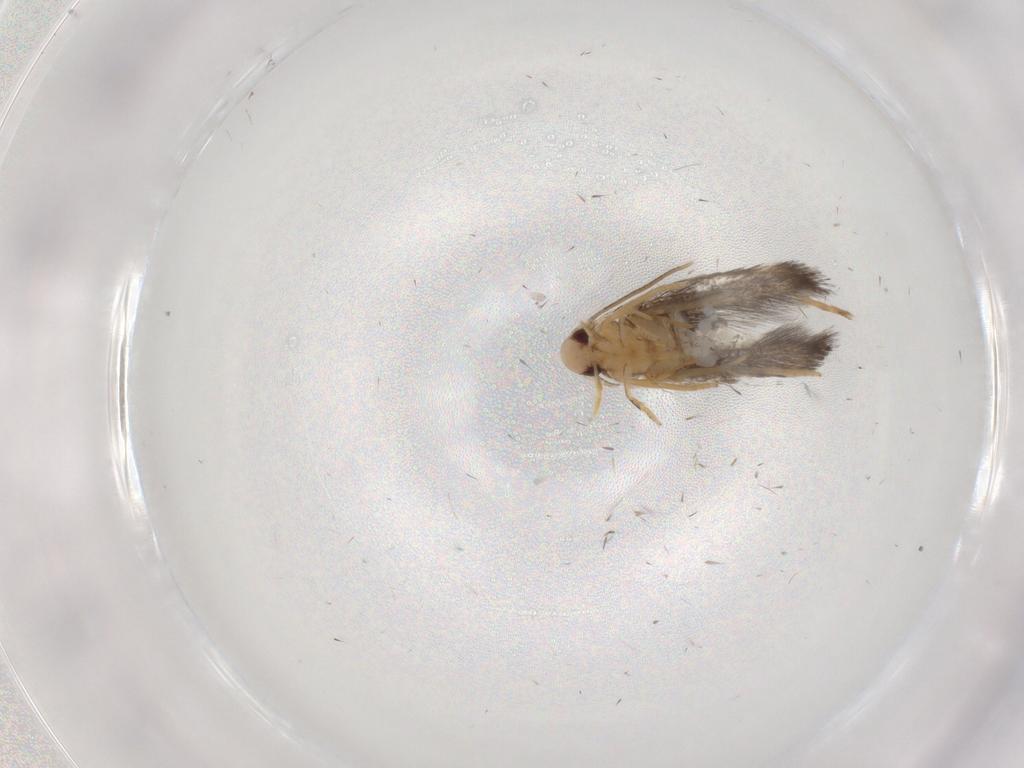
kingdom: Animalia
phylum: Arthropoda
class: Insecta
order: Lepidoptera
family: Gelechiidae
